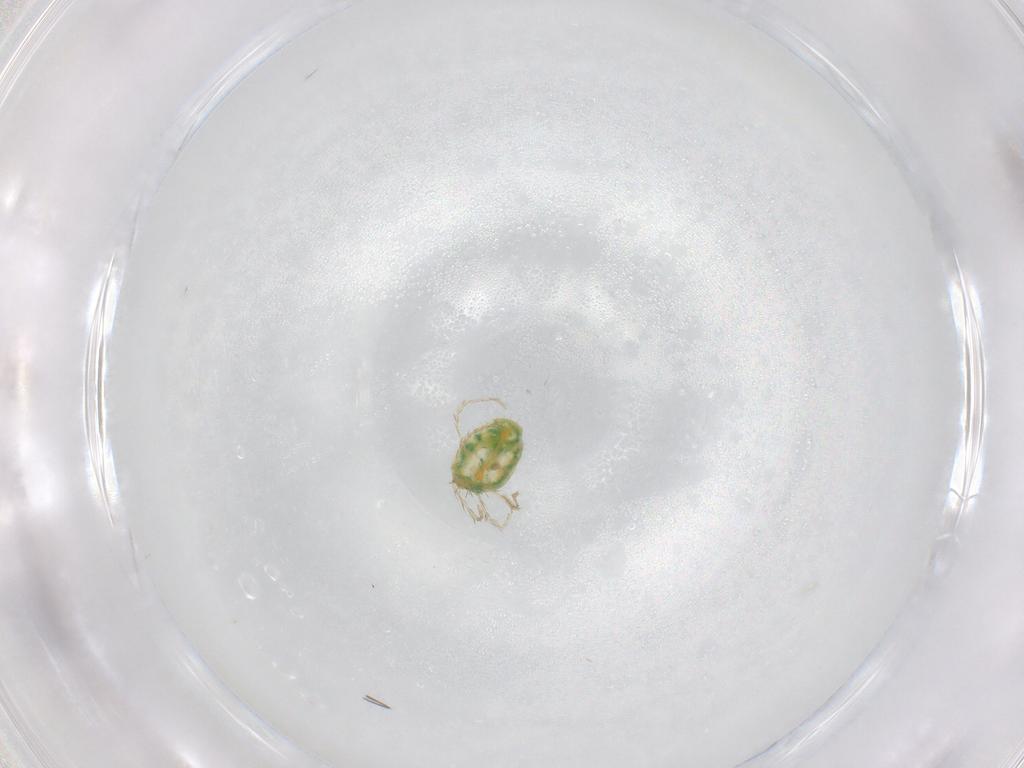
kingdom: Animalia
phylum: Arthropoda
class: Arachnida
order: Trombidiformes
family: Erythraeidae
